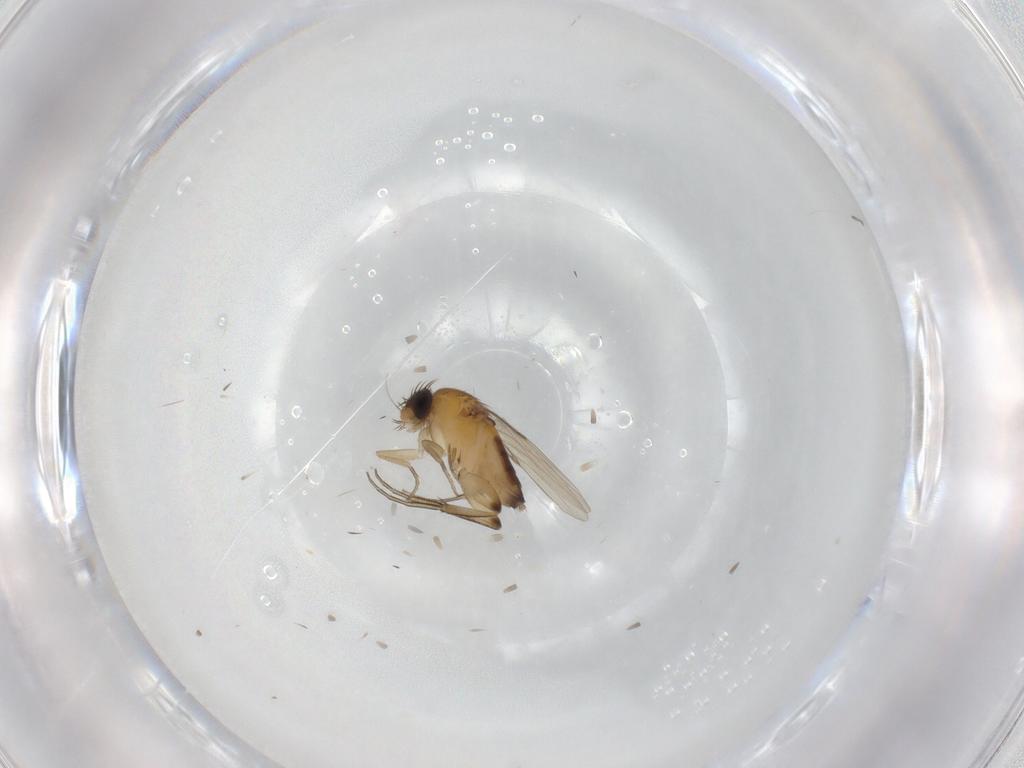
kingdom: Animalia
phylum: Arthropoda
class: Insecta
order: Diptera
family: Phoridae
